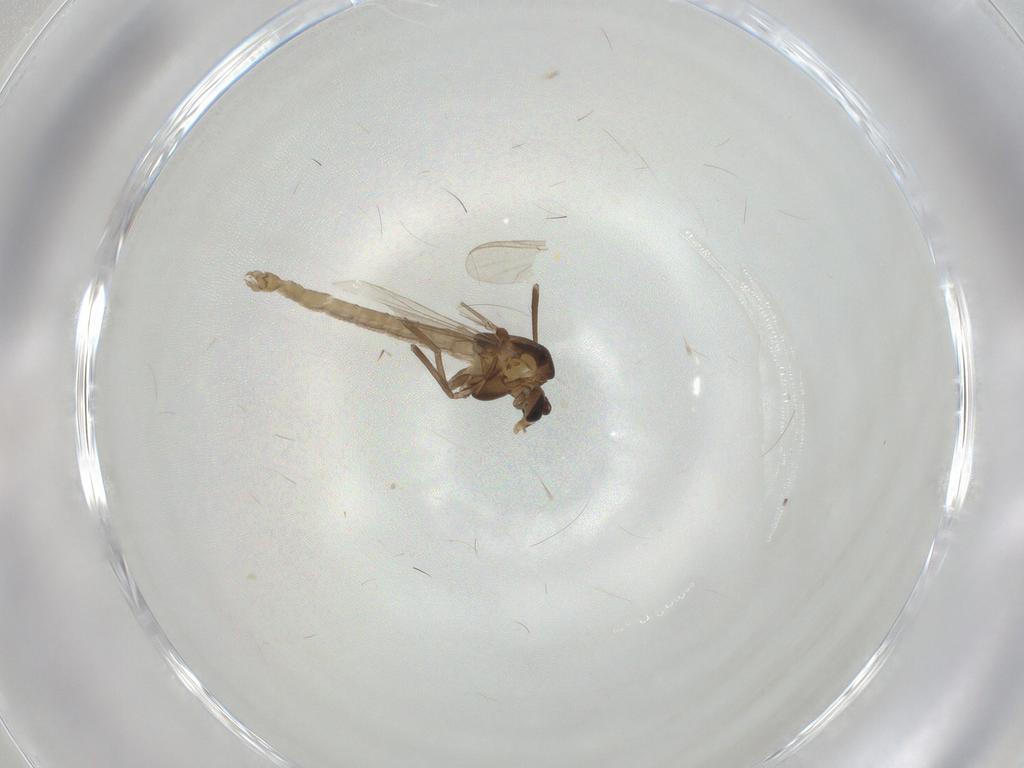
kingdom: Animalia
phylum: Arthropoda
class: Insecta
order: Diptera
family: Chironomidae
